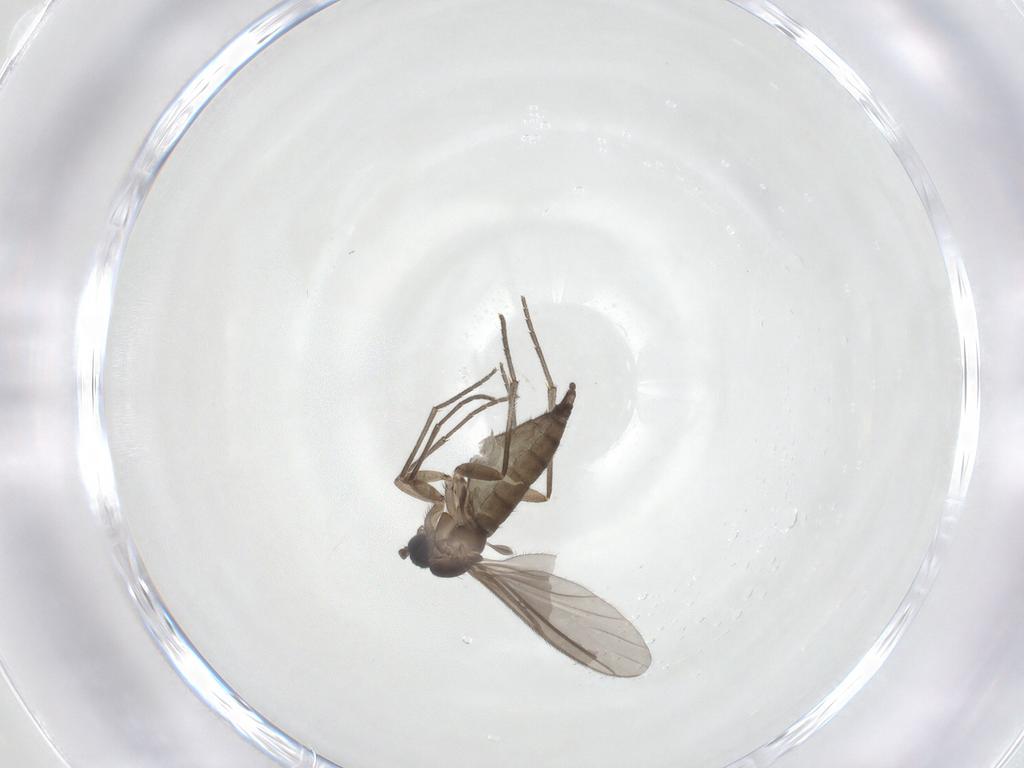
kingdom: Animalia
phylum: Arthropoda
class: Insecta
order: Diptera
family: Sciaridae
